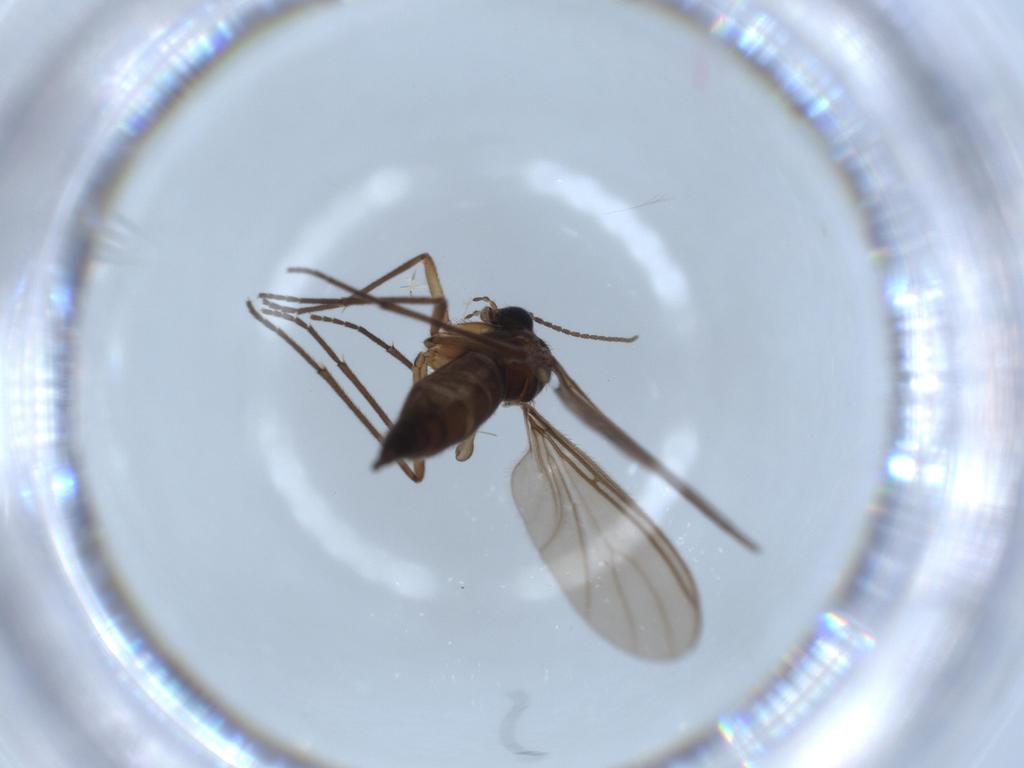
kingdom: Animalia
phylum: Arthropoda
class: Insecta
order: Diptera
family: Sciaridae
